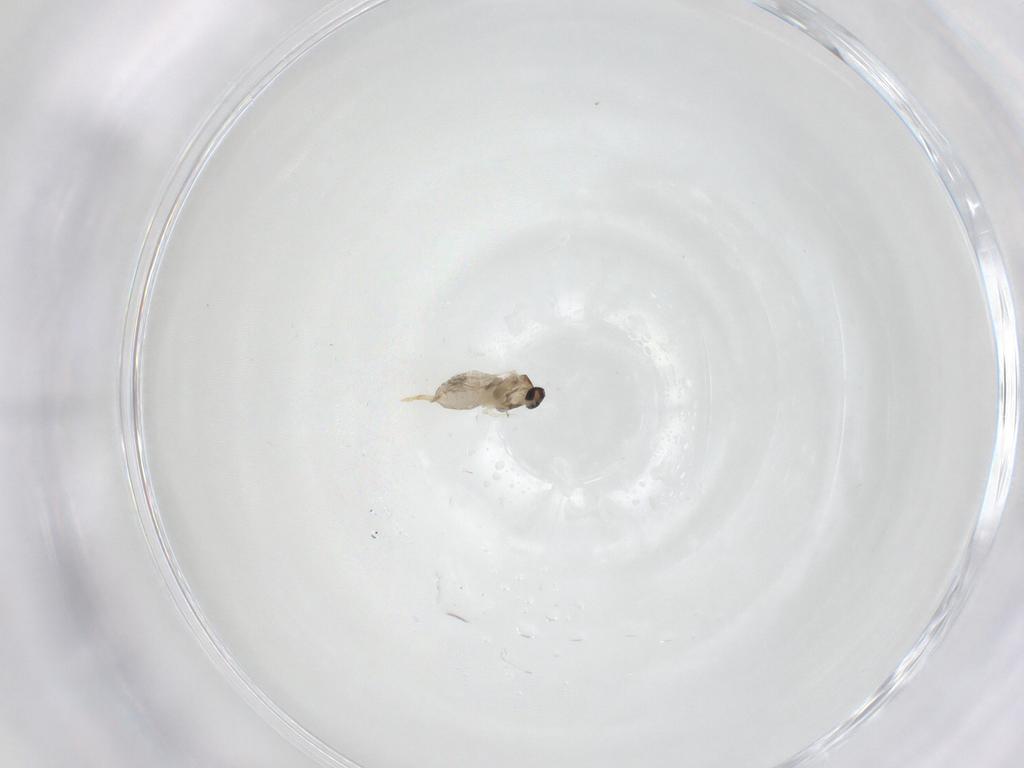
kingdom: Animalia
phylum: Arthropoda
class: Insecta
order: Diptera
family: Cecidomyiidae
